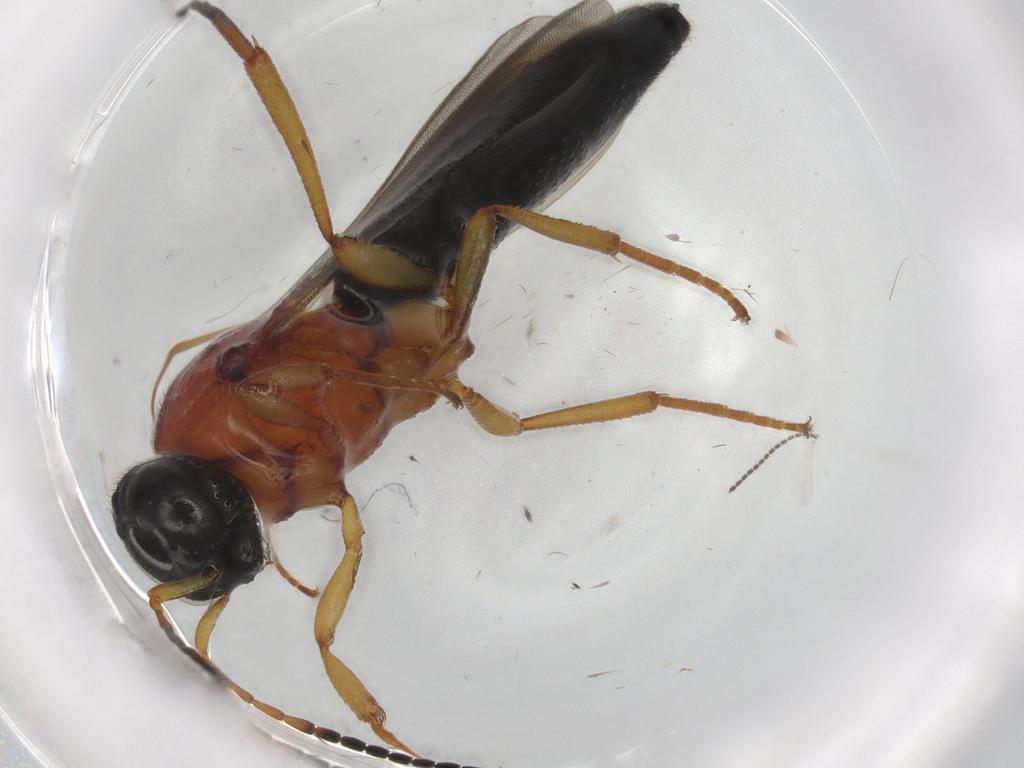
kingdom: Animalia
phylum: Arthropoda
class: Insecta
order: Hymenoptera
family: Scelionidae
